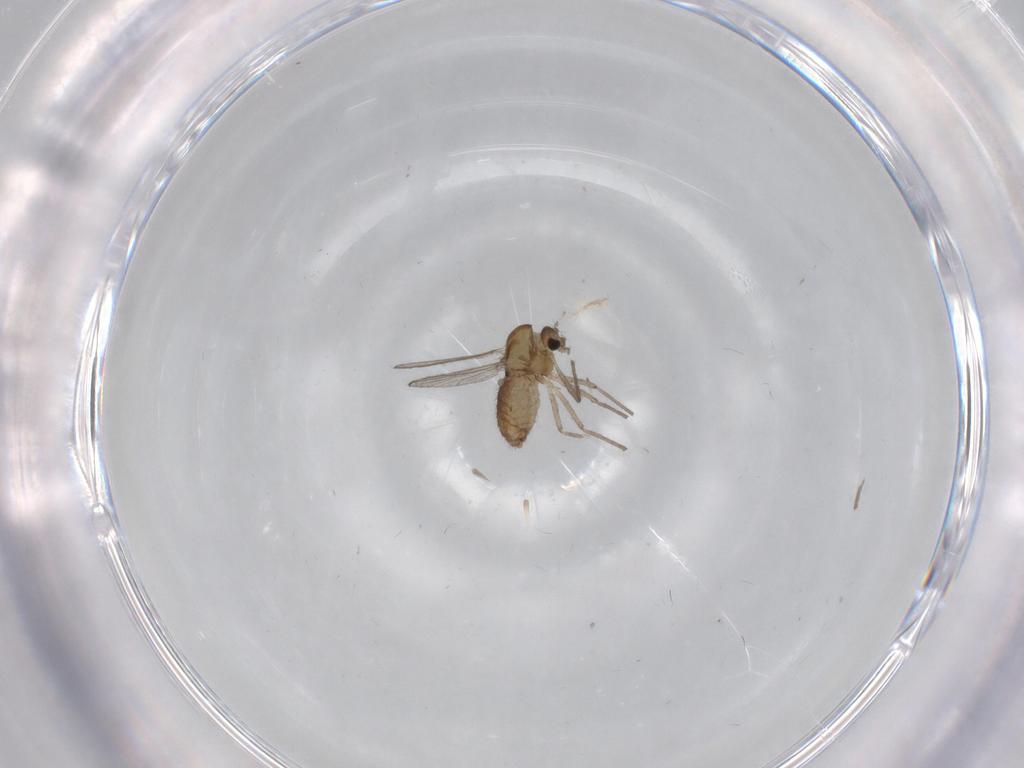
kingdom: Animalia
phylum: Arthropoda
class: Insecta
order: Diptera
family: Chironomidae
